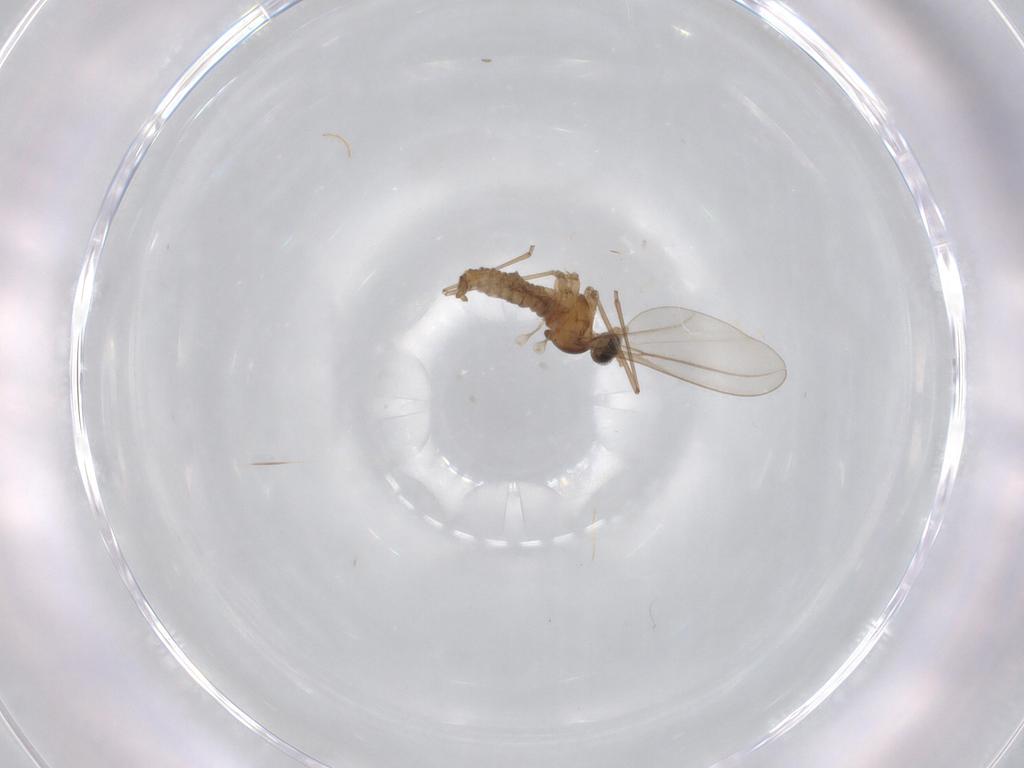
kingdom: Animalia
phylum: Arthropoda
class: Insecta
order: Diptera
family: Cecidomyiidae
